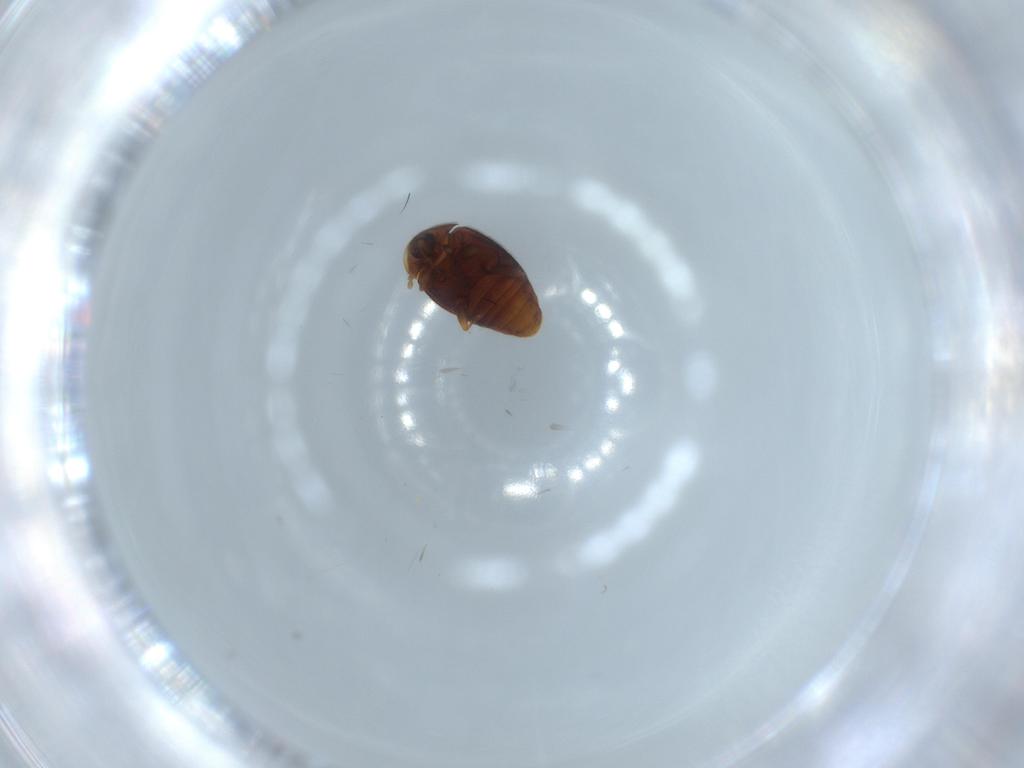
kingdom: Animalia
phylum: Arthropoda
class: Insecta
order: Coleoptera
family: Corylophidae
